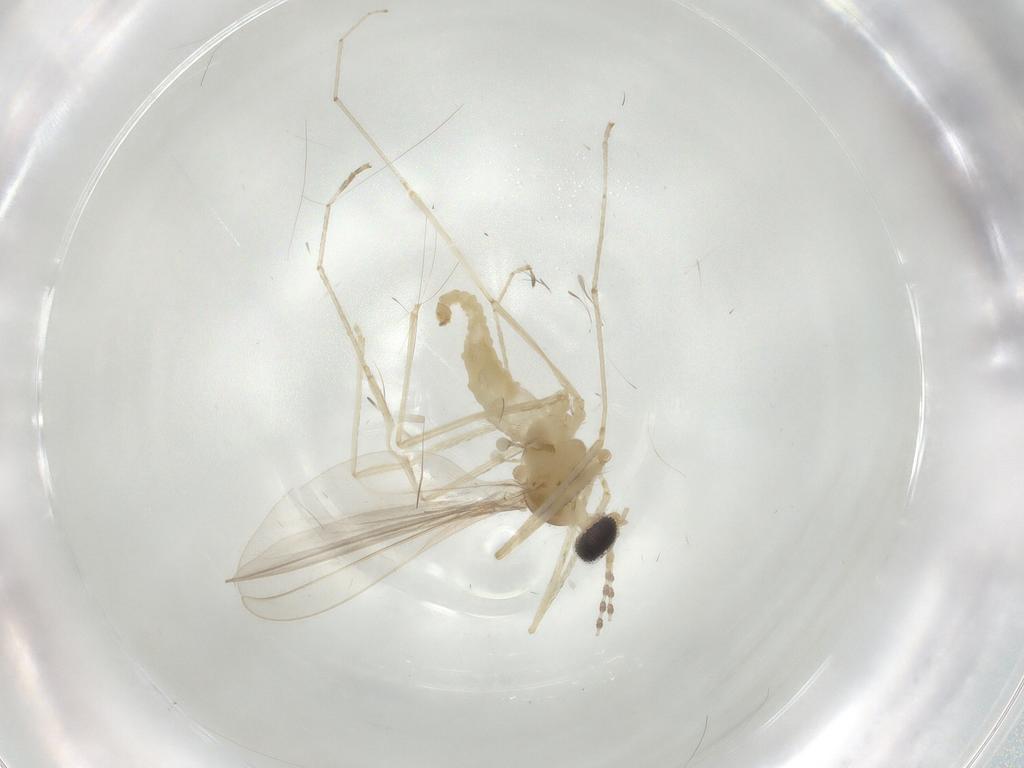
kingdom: Animalia
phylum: Arthropoda
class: Insecta
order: Diptera
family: Cecidomyiidae
